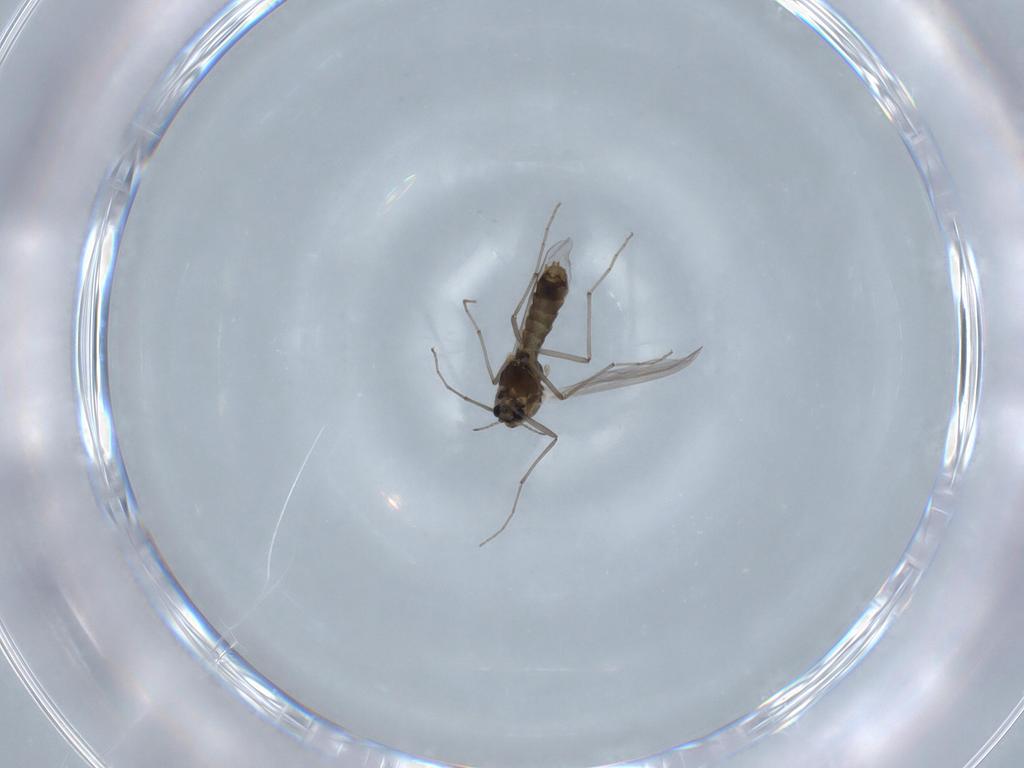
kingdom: Animalia
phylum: Arthropoda
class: Insecta
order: Diptera
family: Chironomidae
